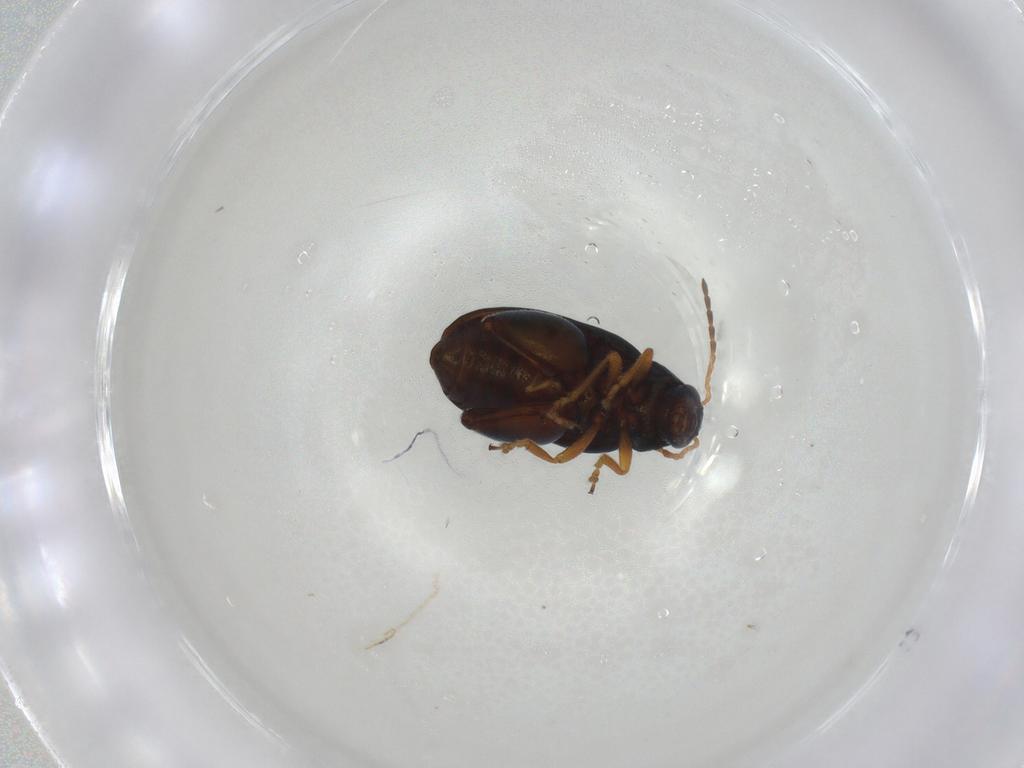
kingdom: Animalia
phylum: Arthropoda
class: Insecta
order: Coleoptera
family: Chrysomelidae
